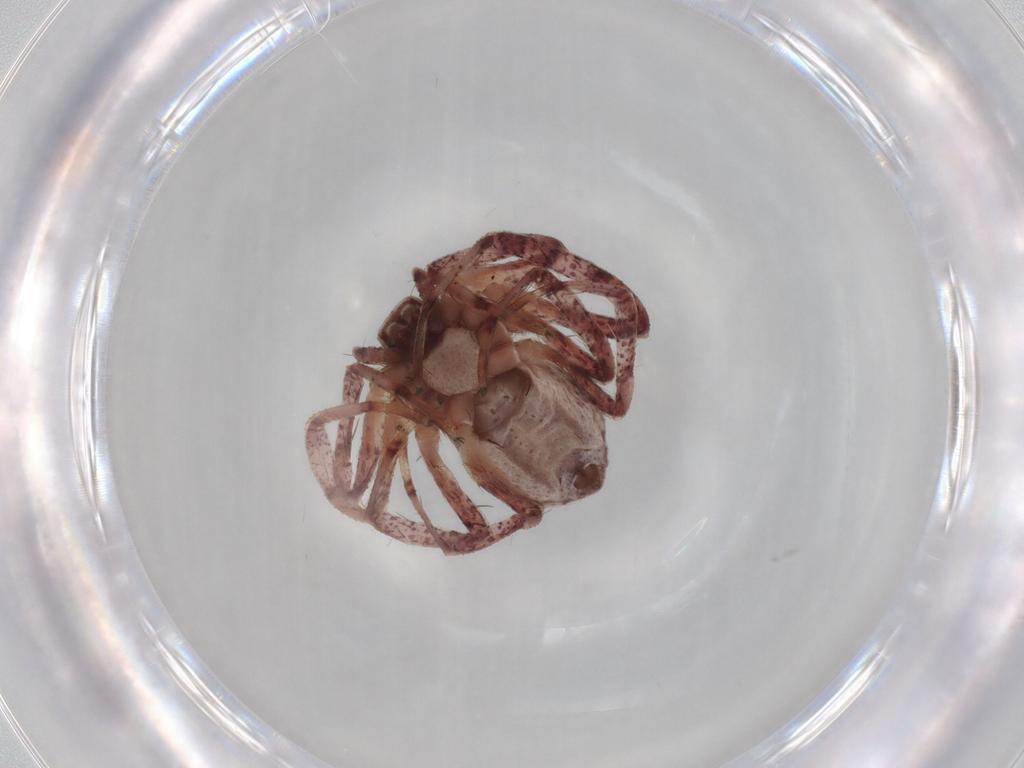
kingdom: Animalia
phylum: Arthropoda
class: Arachnida
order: Araneae
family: Philodromidae
